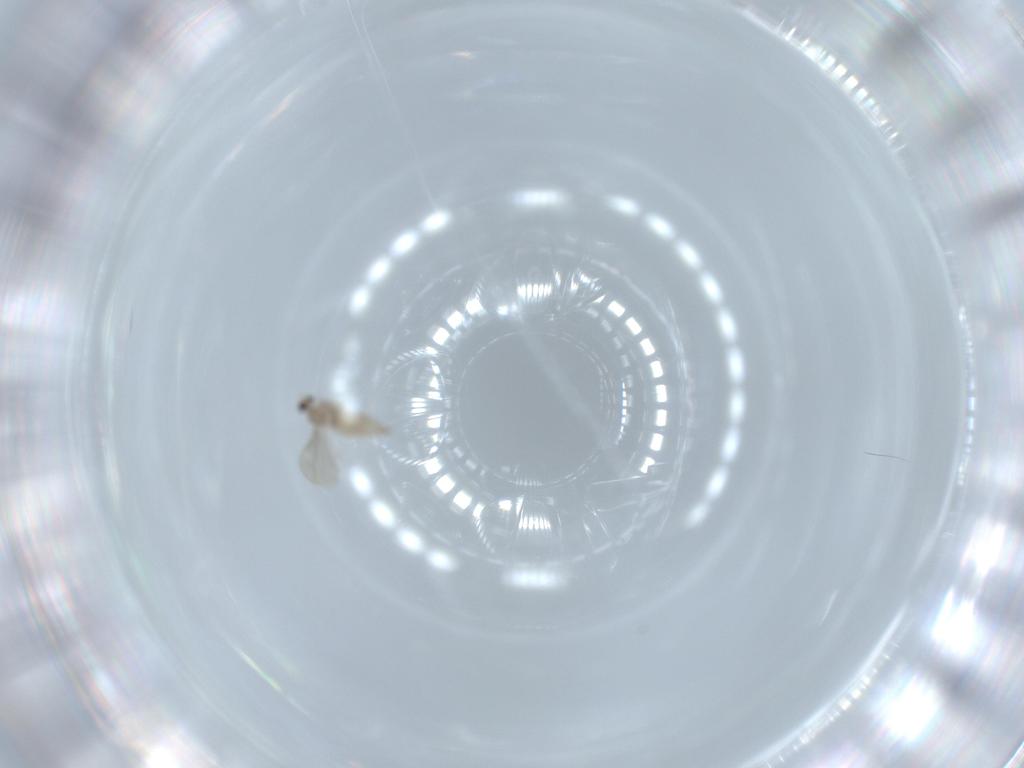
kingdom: Animalia
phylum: Arthropoda
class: Insecta
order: Diptera
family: Cecidomyiidae
